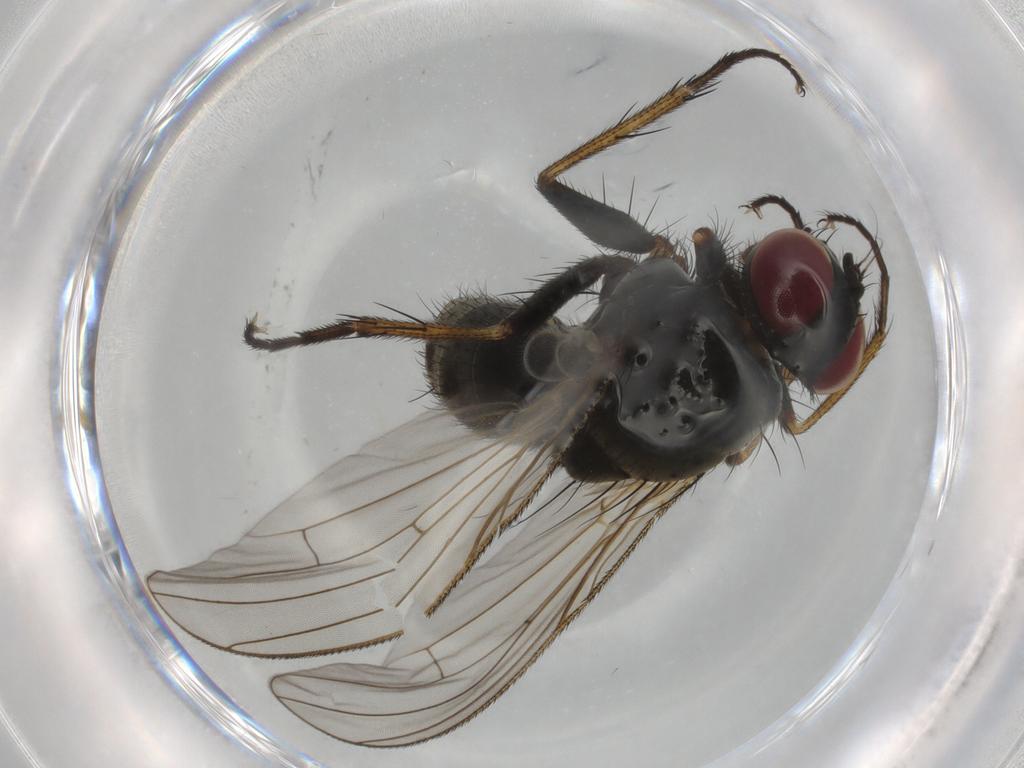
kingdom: Animalia
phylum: Arthropoda
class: Insecta
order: Diptera
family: Muscidae
